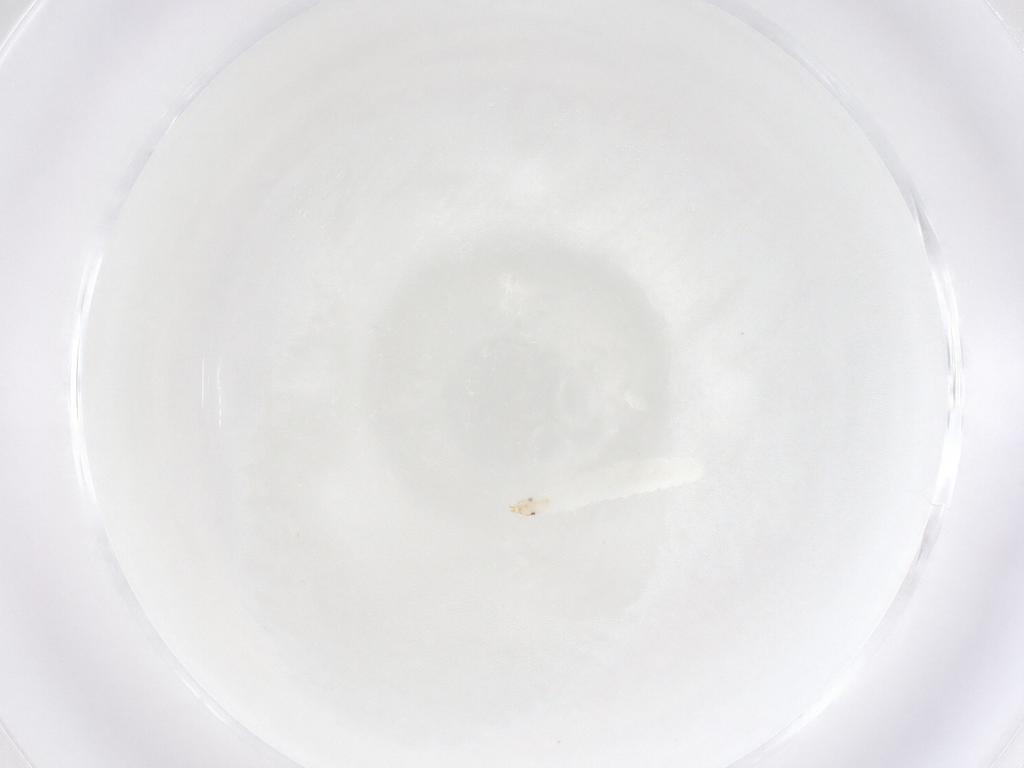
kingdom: Animalia
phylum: Arthropoda
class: Insecta
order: Diptera
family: Stratiomyidae
